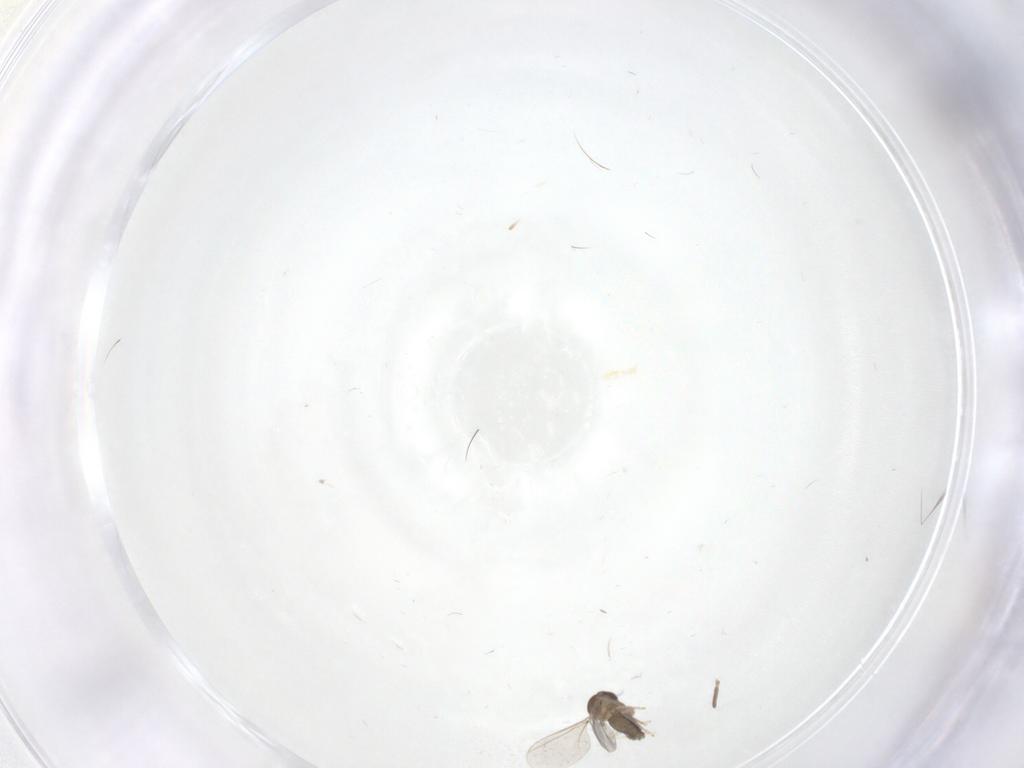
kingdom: Animalia
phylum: Arthropoda
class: Insecta
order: Diptera
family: Chironomidae
